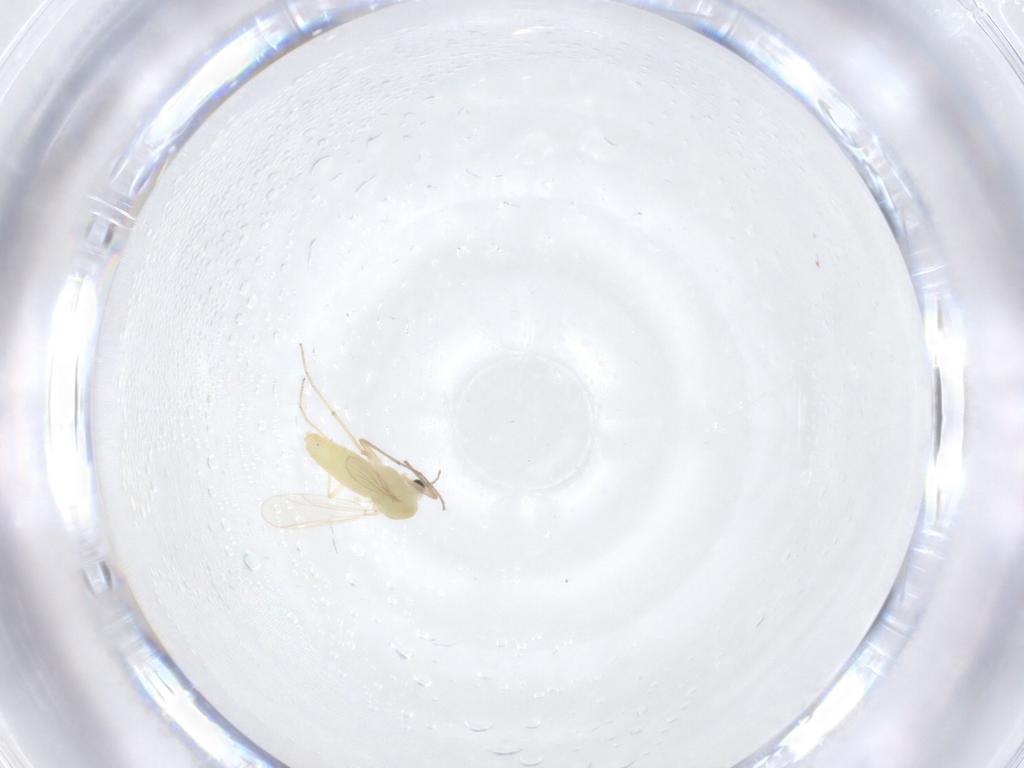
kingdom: Animalia
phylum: Arthropoda
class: Insecta
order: Diptera
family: Chironomidae
